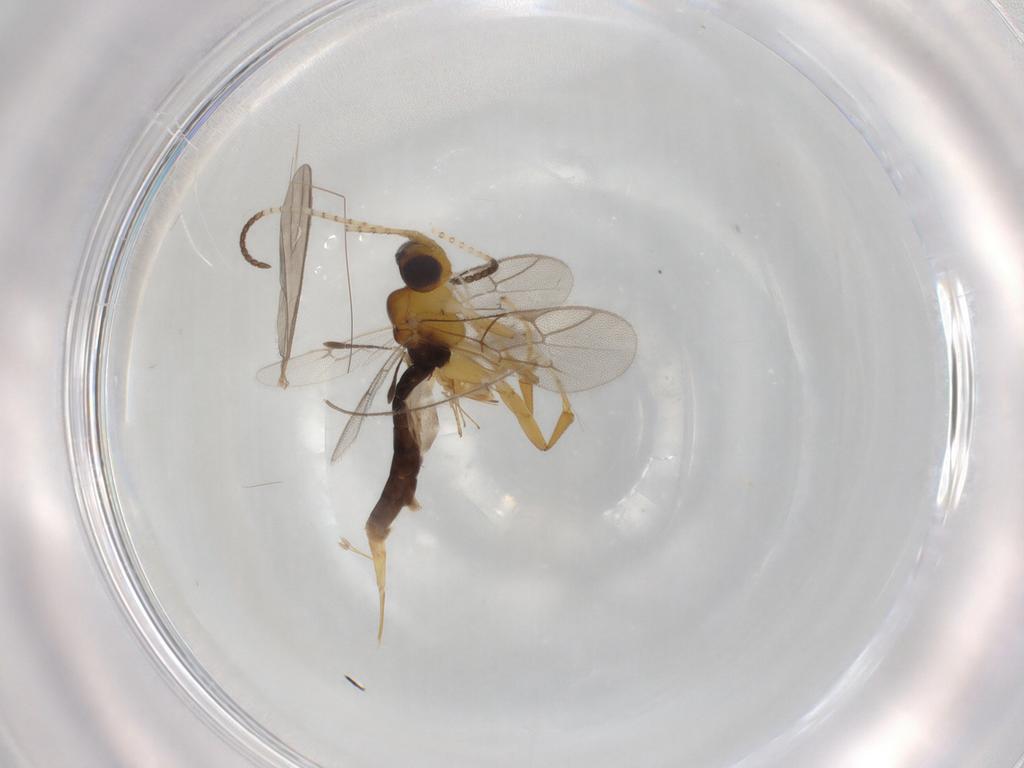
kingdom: Animalia
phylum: Arthropoda
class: Insecta
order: Hymenoptera
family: Ichneumonidae
